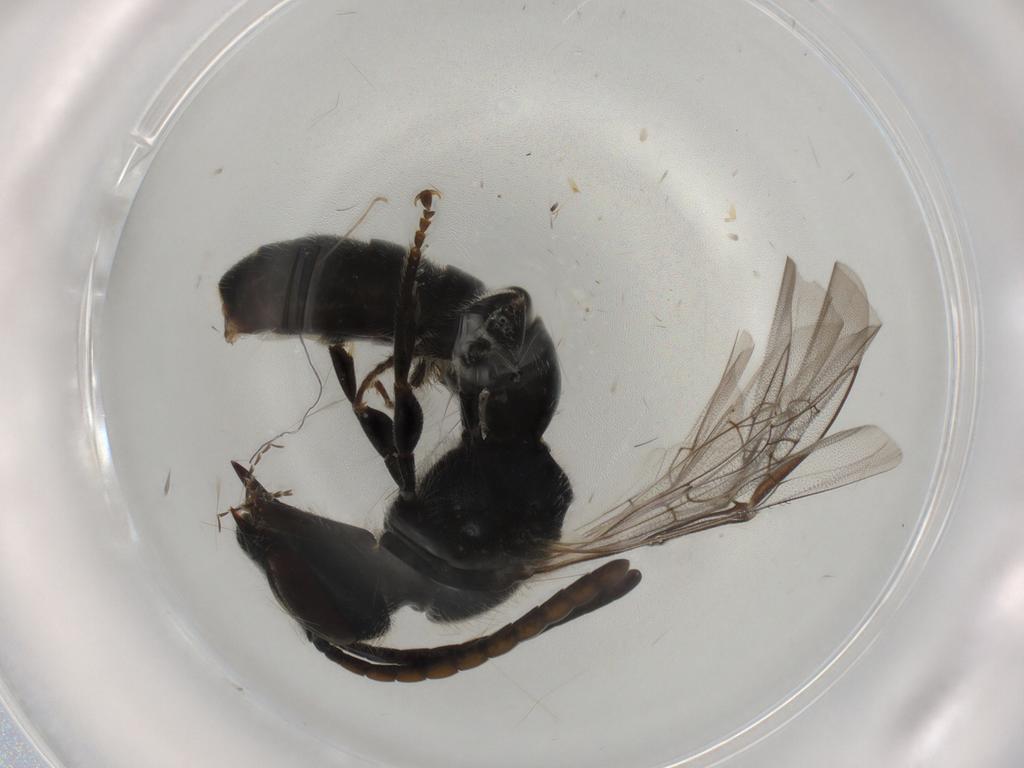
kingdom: Animalia
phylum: Arthropoda
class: Insecta
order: Hymenoptera
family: Halictidae
